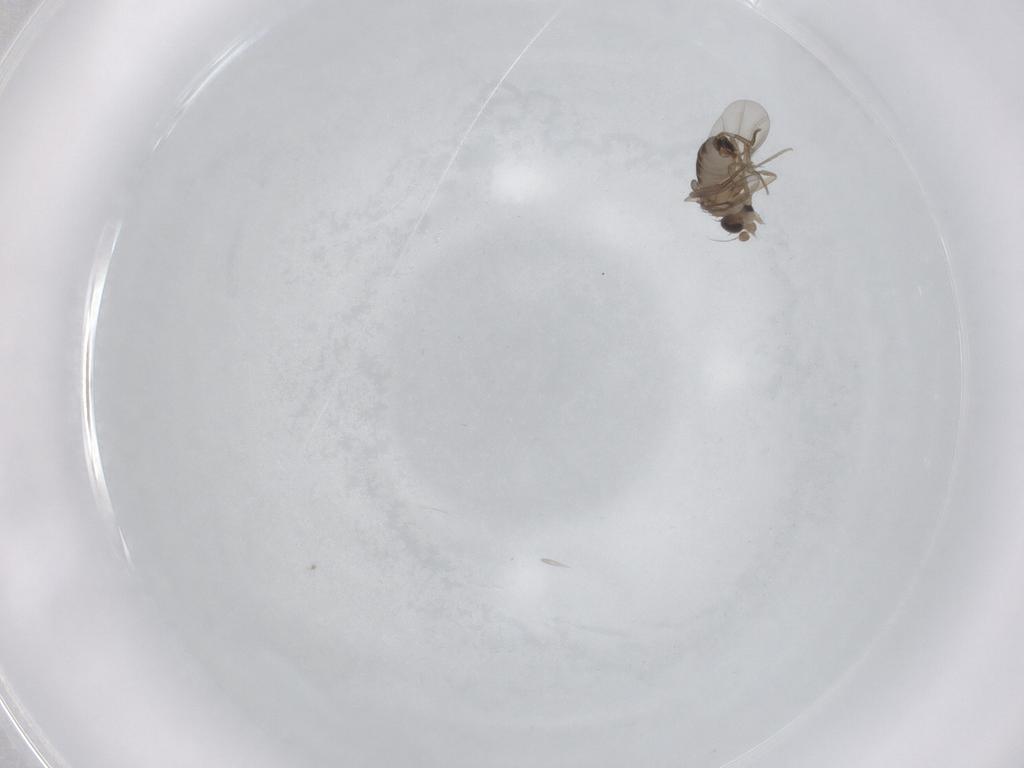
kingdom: Animalia
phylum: Arthropoda
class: Insecta
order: Diptera
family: Phoridae
